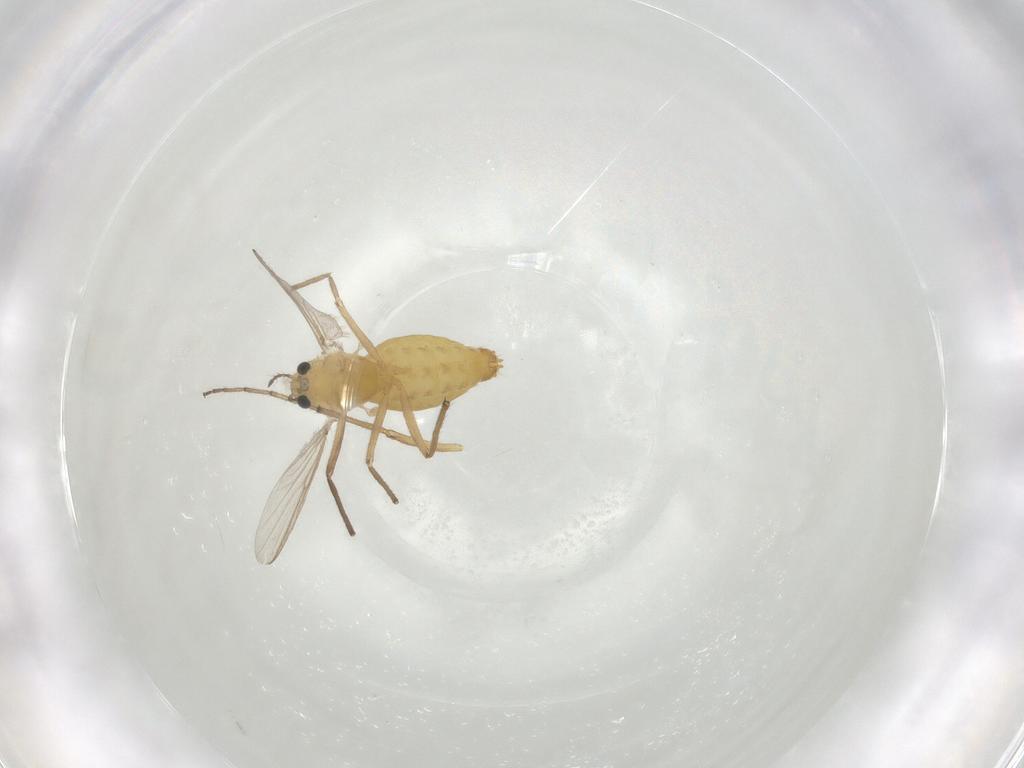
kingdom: Animalia
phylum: Arthropoda
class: Insecta
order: Diptera
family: Chironomidae
